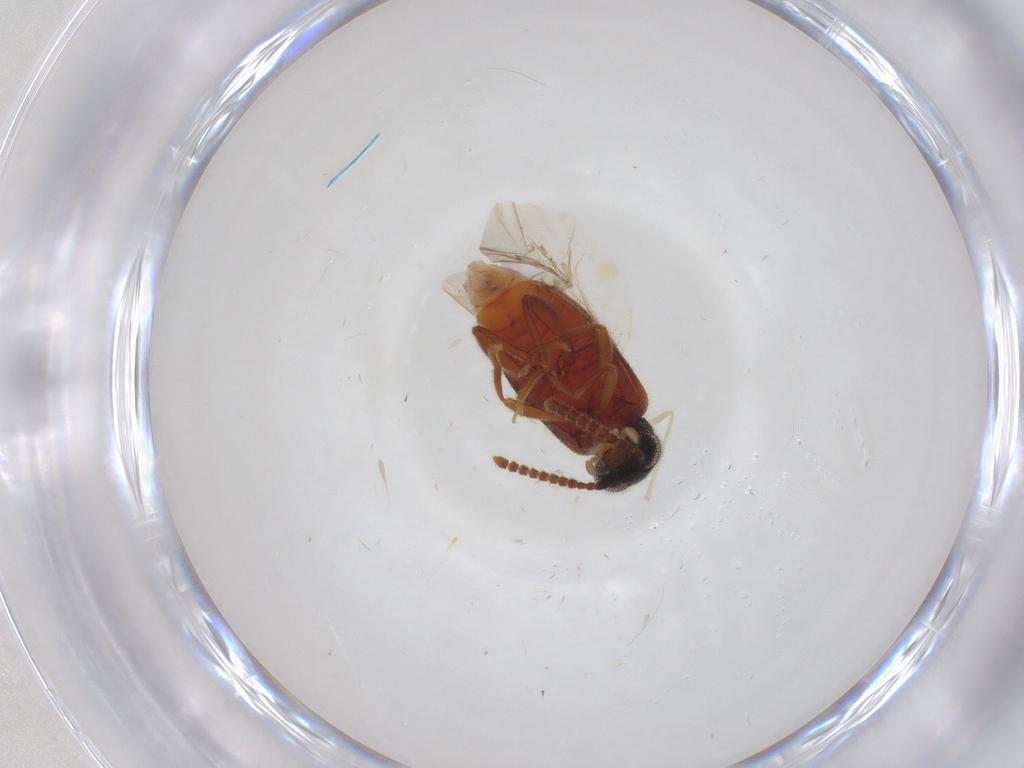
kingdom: Animalia
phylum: Arthropoda
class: Insecta
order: Coleoptera
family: Aderidae
